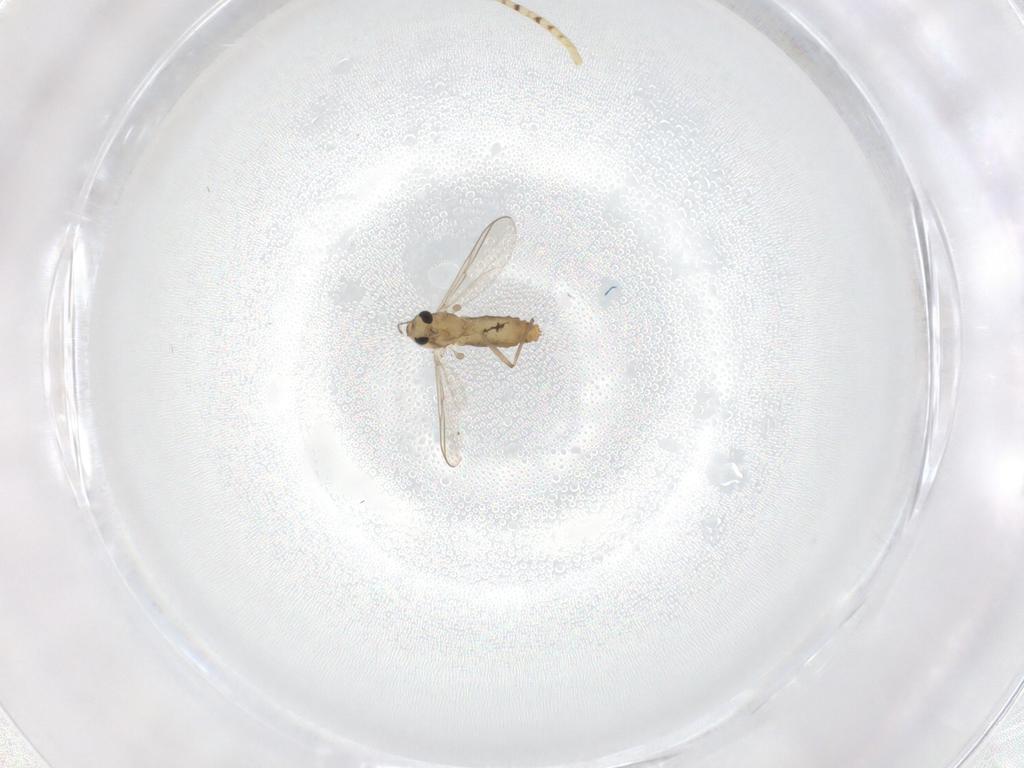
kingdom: Animalia
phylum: Arthropoda
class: Insecta
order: Diptera
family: Chironomidae
